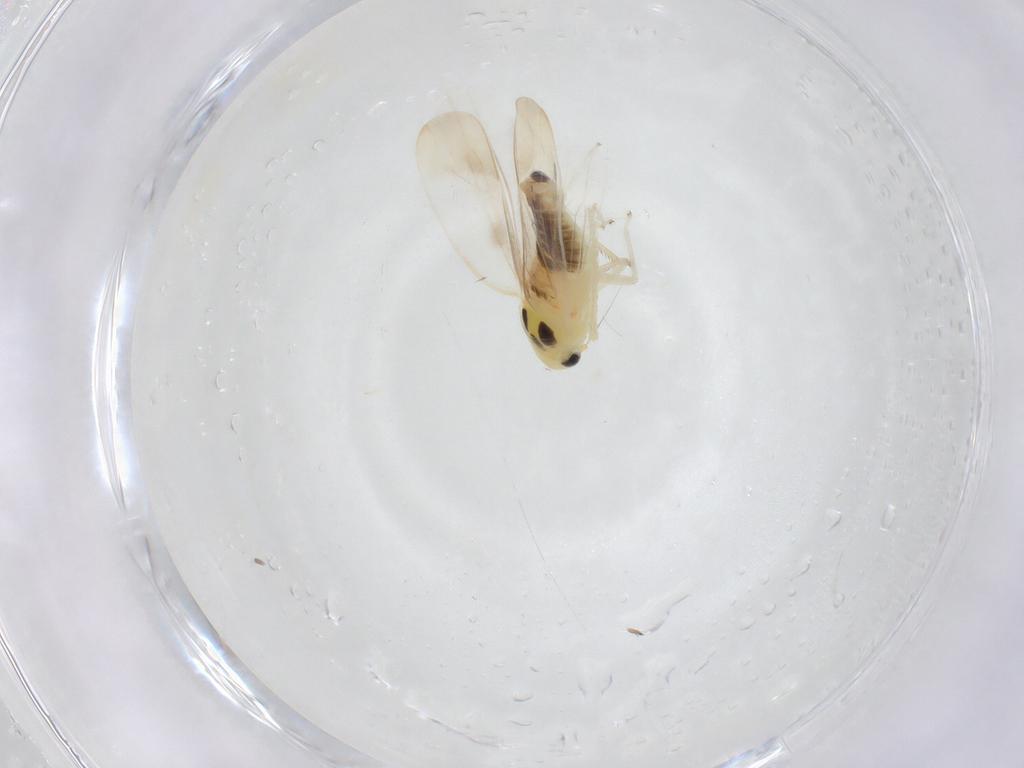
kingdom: Animalia
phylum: Arthropoda
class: Insecta
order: Hemiptera
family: Cicadellidae
